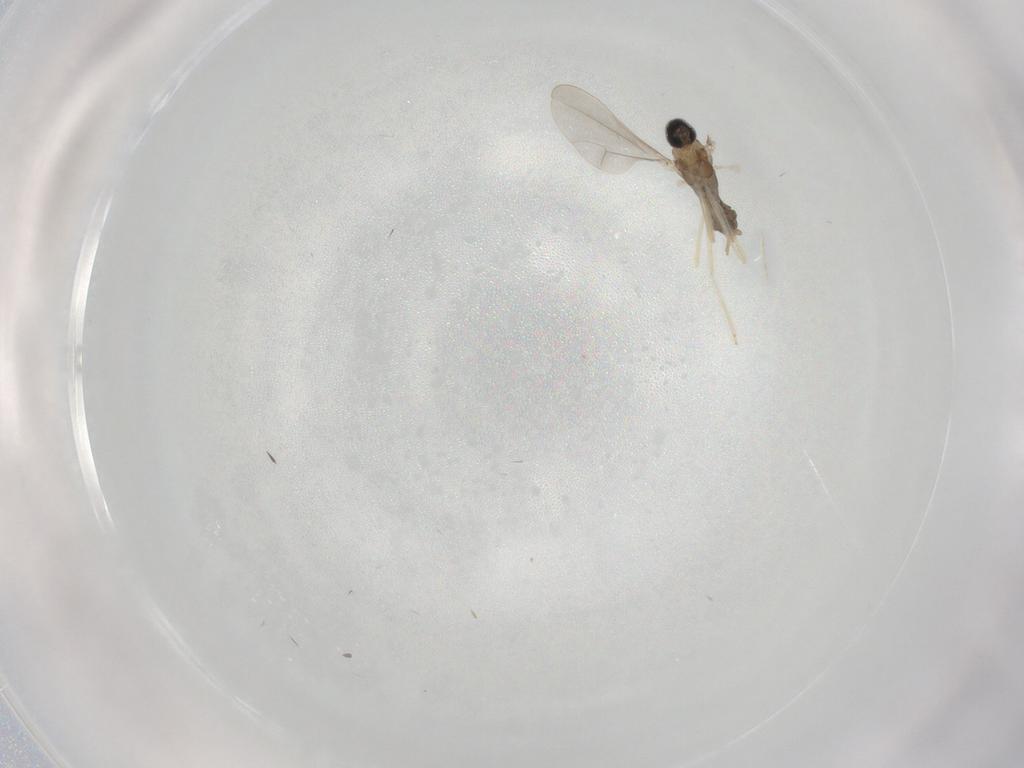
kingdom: Animalia
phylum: Arthropoda
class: Insecta
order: Diptera
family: Cecidomyiidae
